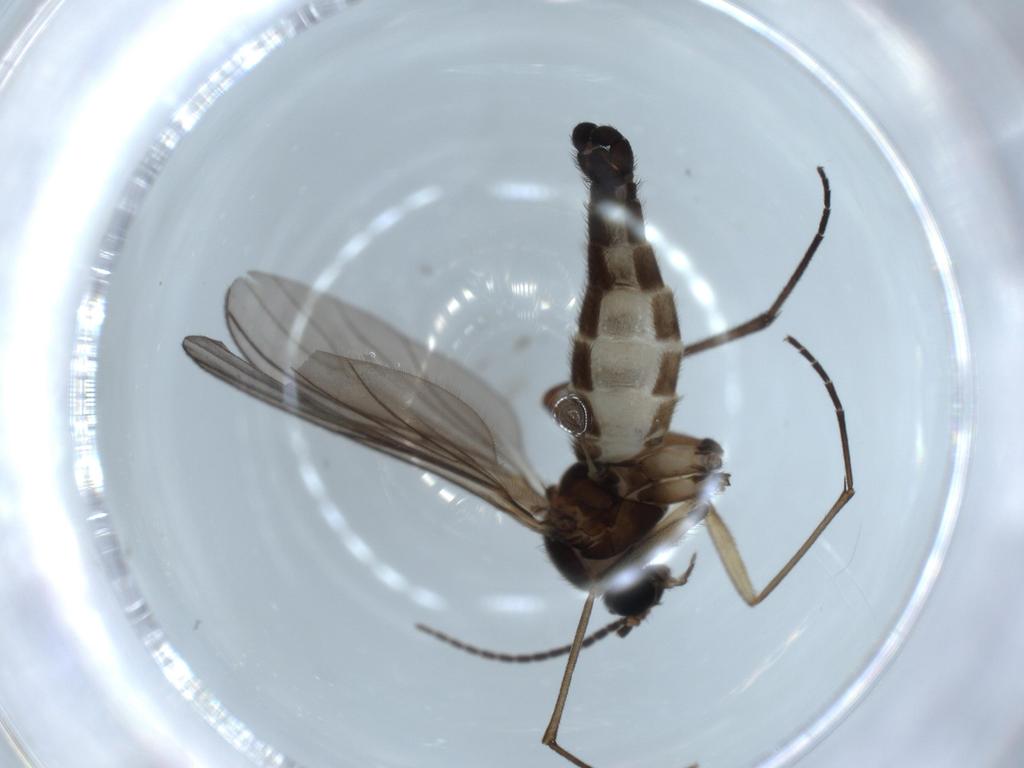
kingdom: Animalia
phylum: Arthropoda
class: Insecta
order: Diptera
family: Sciaridae
